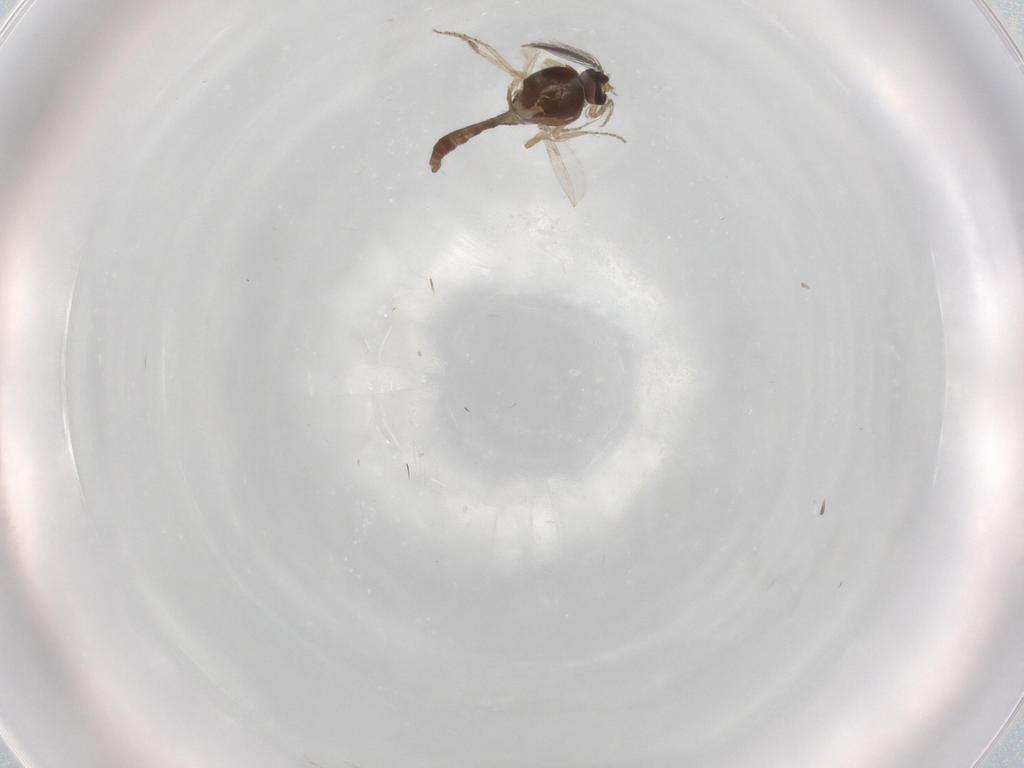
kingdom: Animalia
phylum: Arthropoda
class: Insecta
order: Diptera
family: Ceratopogonidae
